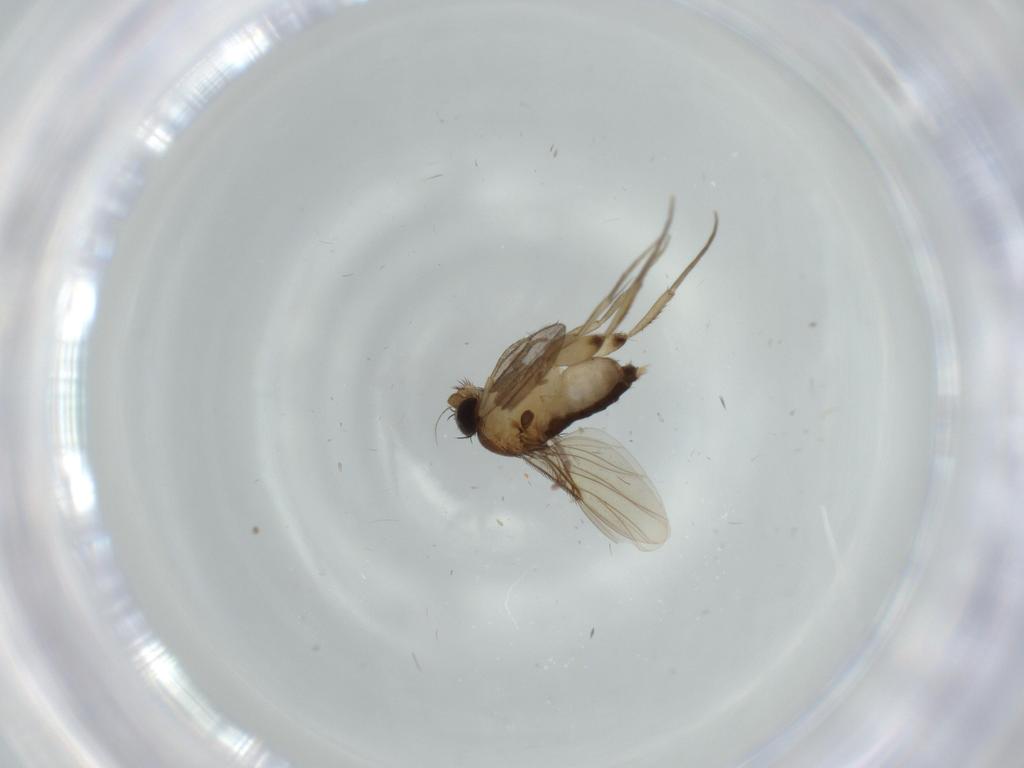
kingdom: Animalia
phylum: Arthropoda
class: Insecta
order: Diptera
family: Phoridae
